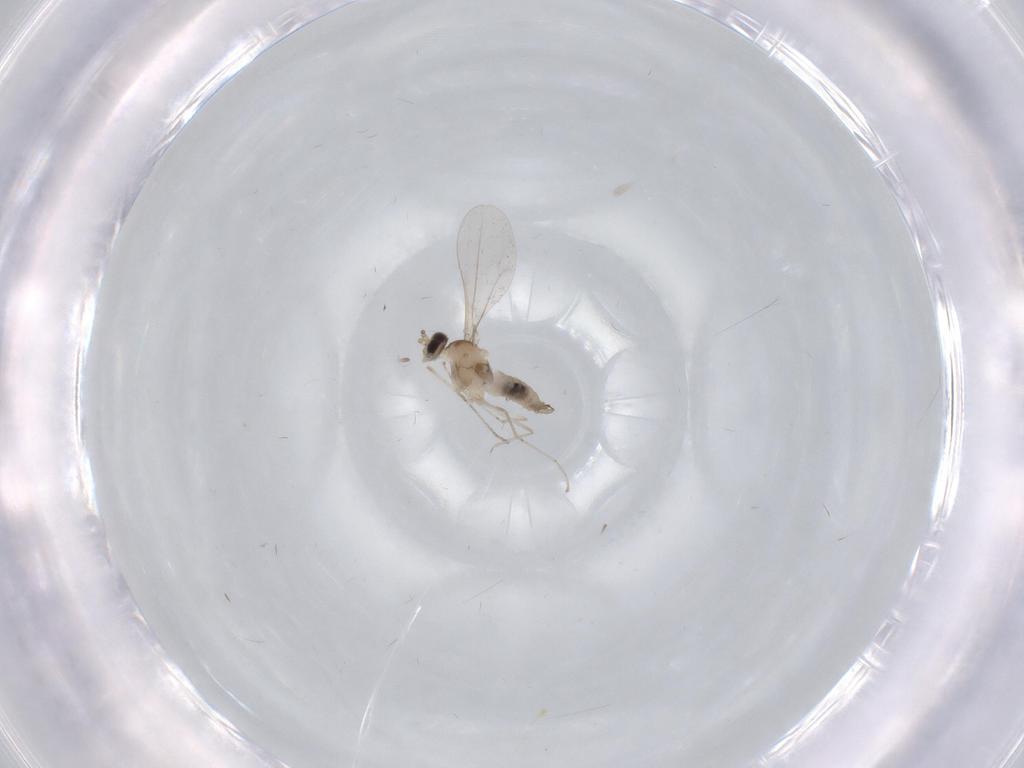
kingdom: Animalia
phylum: Arthropoda
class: Insecta
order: Diptera
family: Cecidomyiidae
